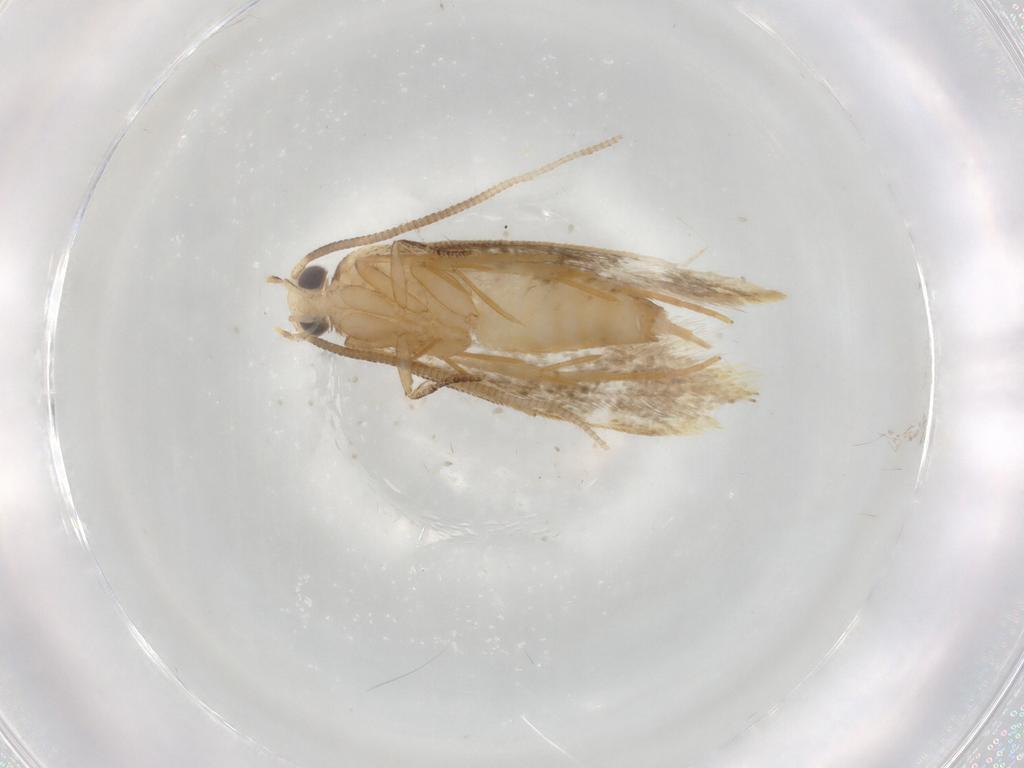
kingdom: Animalia
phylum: Arthropoda
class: Insecta
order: Lepidoptera
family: Tineidae
